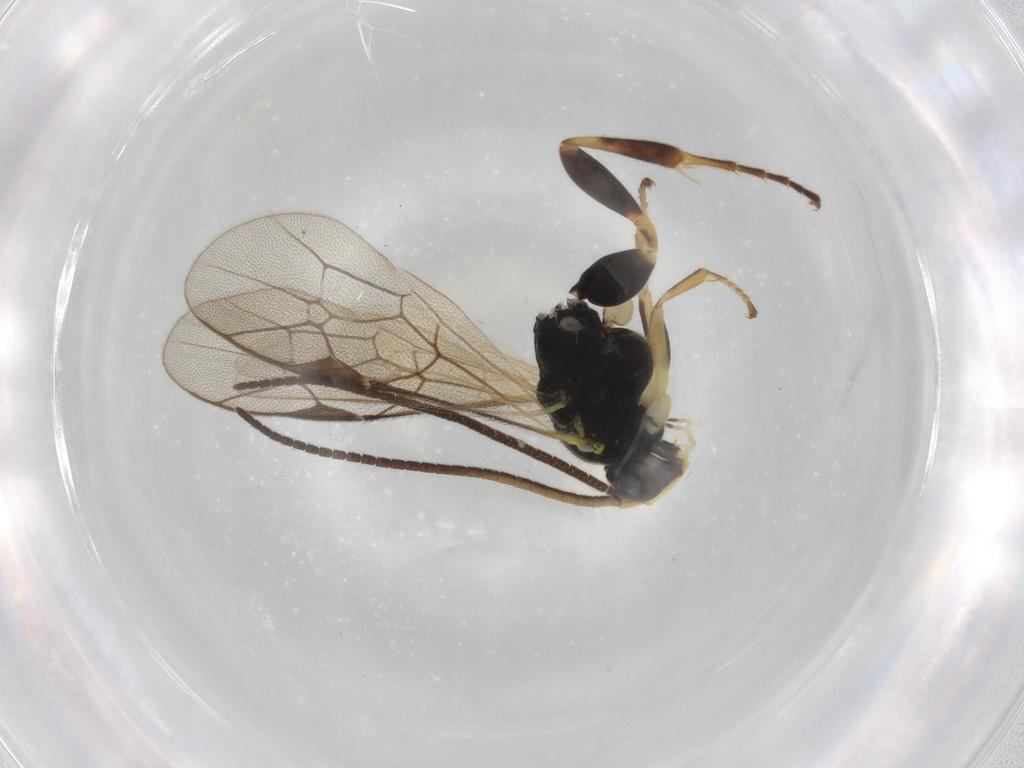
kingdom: Animalia
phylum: Arthropoda
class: Insecta
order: Hymenoptera
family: Ichneumonidae
